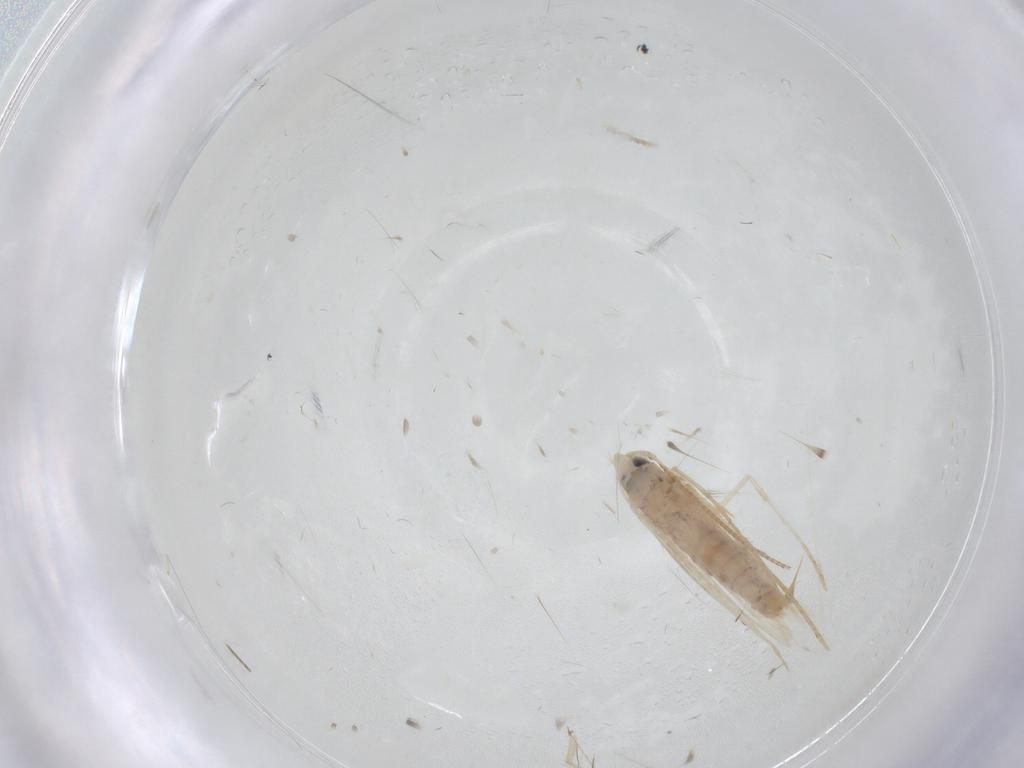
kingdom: Animalia
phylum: Arthropoda
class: Insecta
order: Lepidoptera
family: Saturniidae
